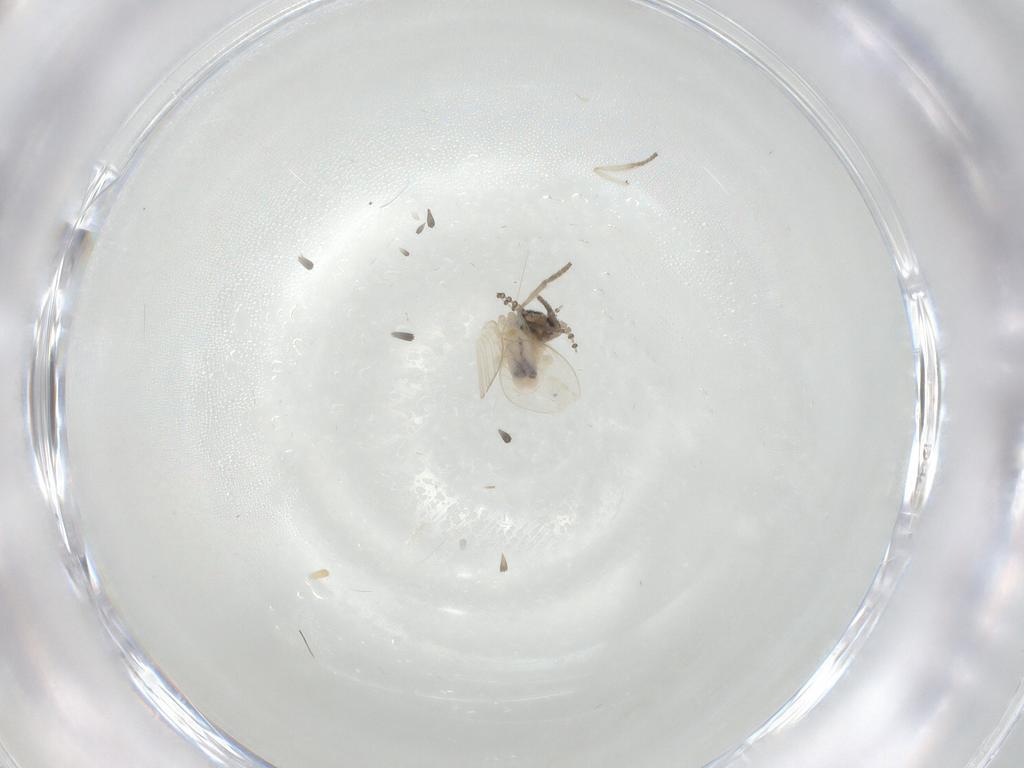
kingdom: Animalia
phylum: Arthropoda
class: Insecta
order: Diptera
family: Psychodidae
